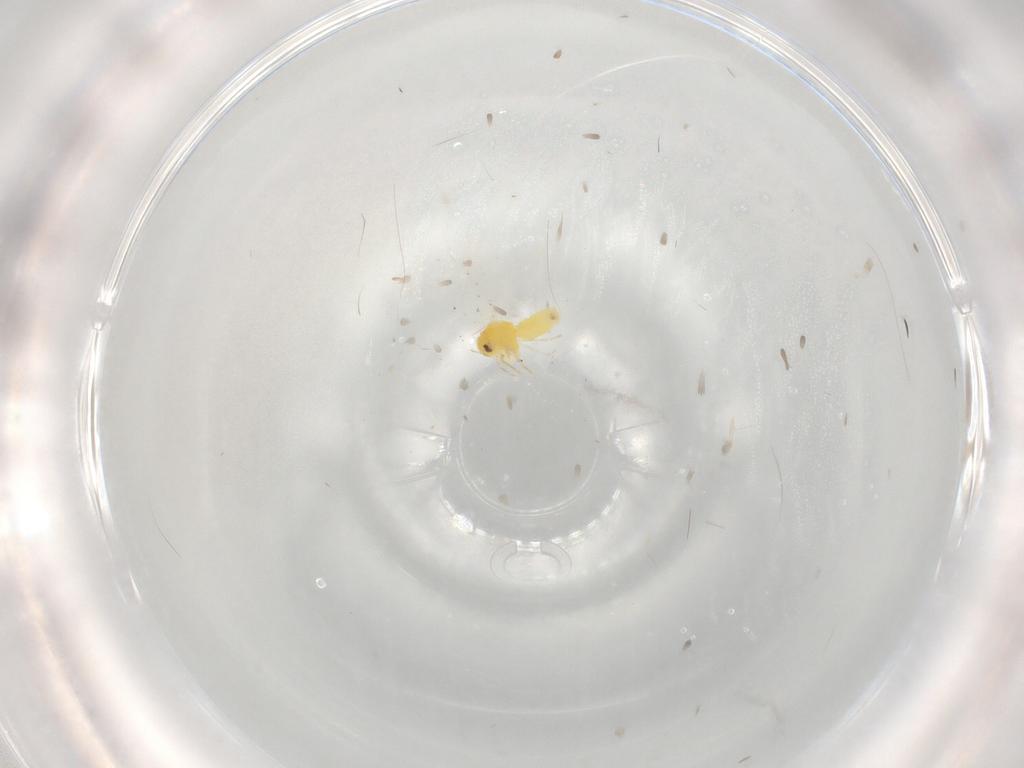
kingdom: Animalia
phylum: Arthropoda
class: Insecta
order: Hemiptera
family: Aleyrodidae
